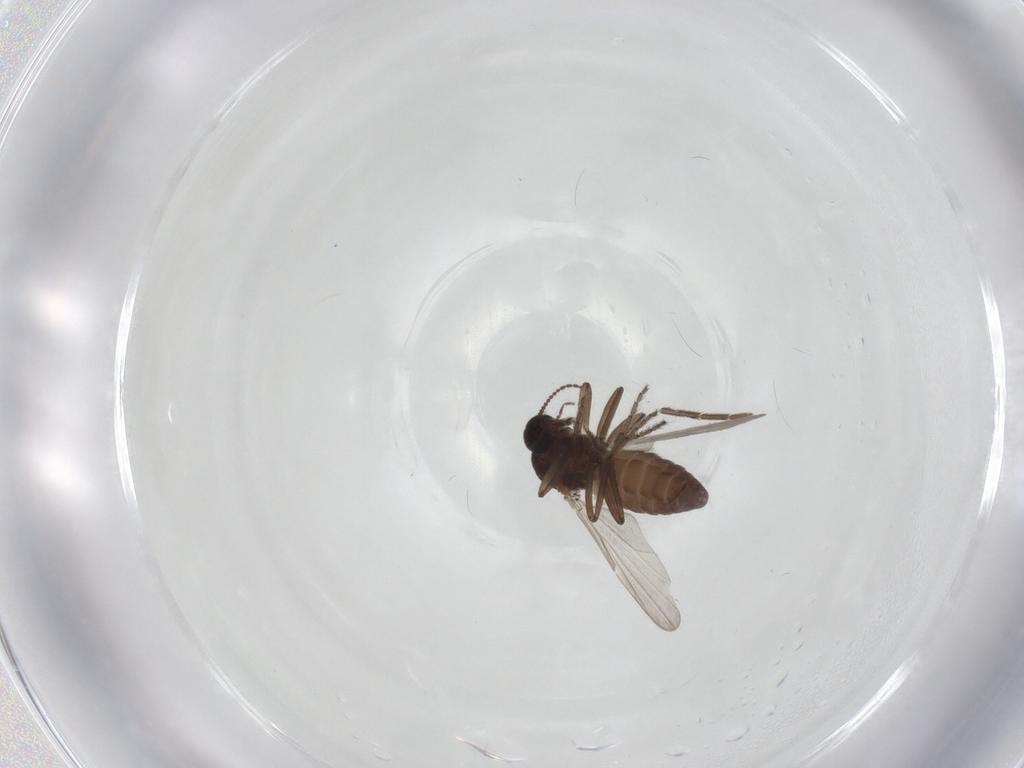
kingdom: Animalia
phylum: Arthropoda
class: Insecta
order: Diptera
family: Ceratopogonidae
